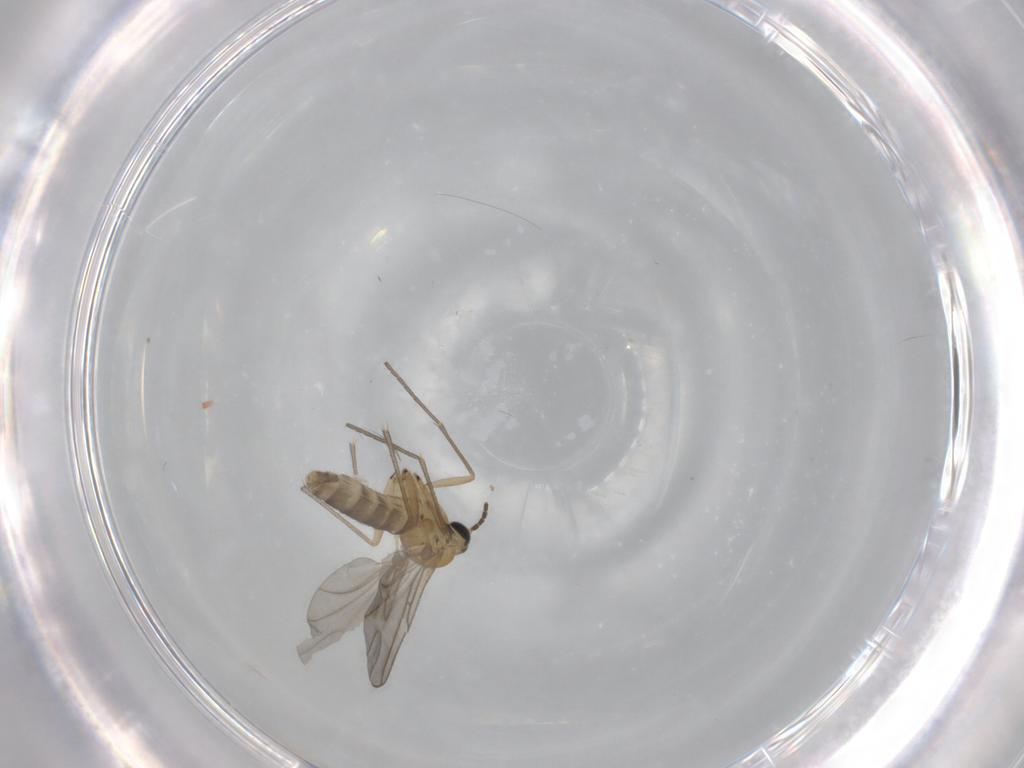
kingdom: Animalia
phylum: Arthropoda
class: Insecta
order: Diptera
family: Sciaridae
